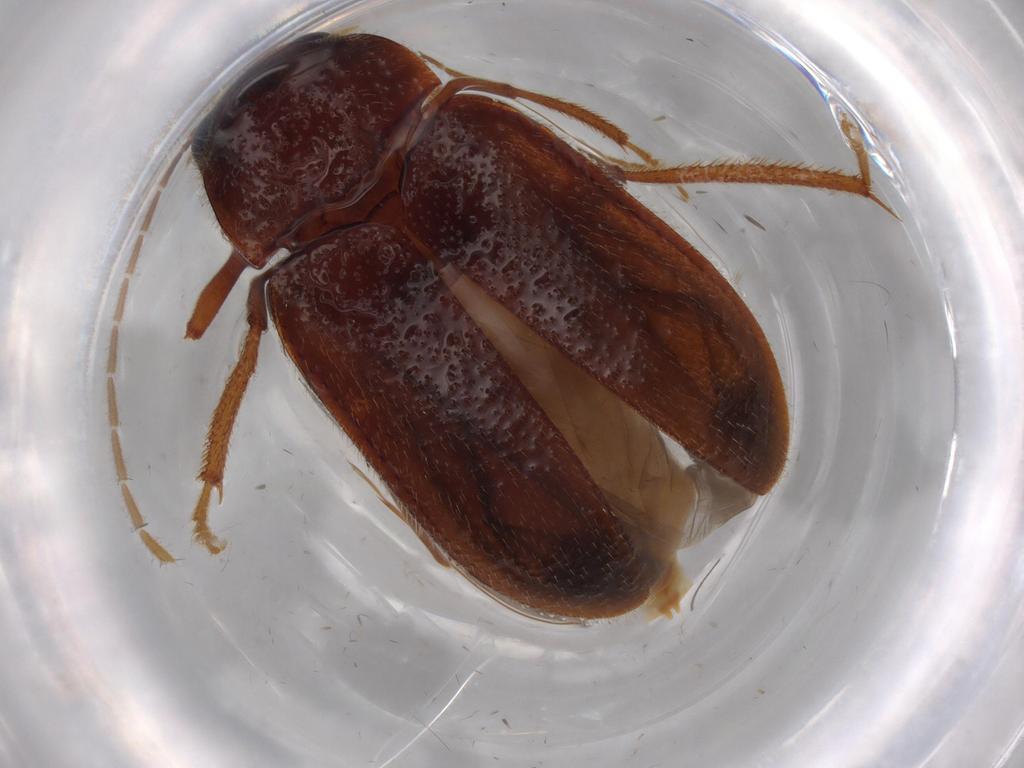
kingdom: Animalia
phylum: Arthropoda
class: Insecta
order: Coleoptera
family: Ptilodactylidae
